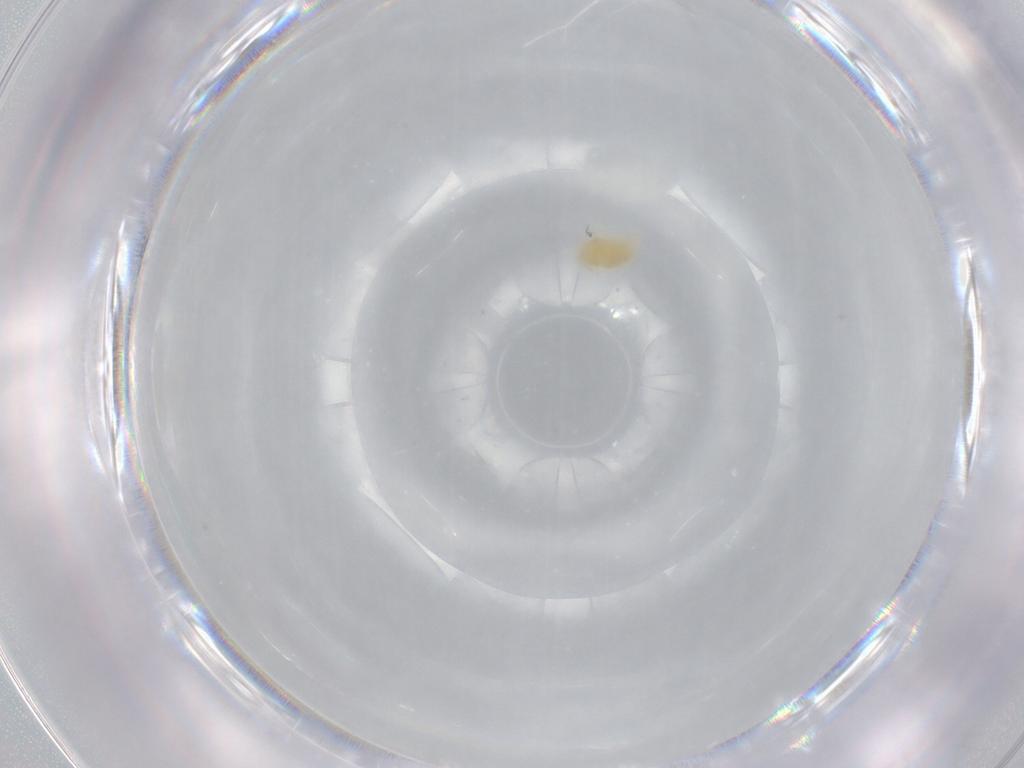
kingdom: Animalia
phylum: Arthropoda
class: Arachnida
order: Trombidiformes
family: Eupodidae
